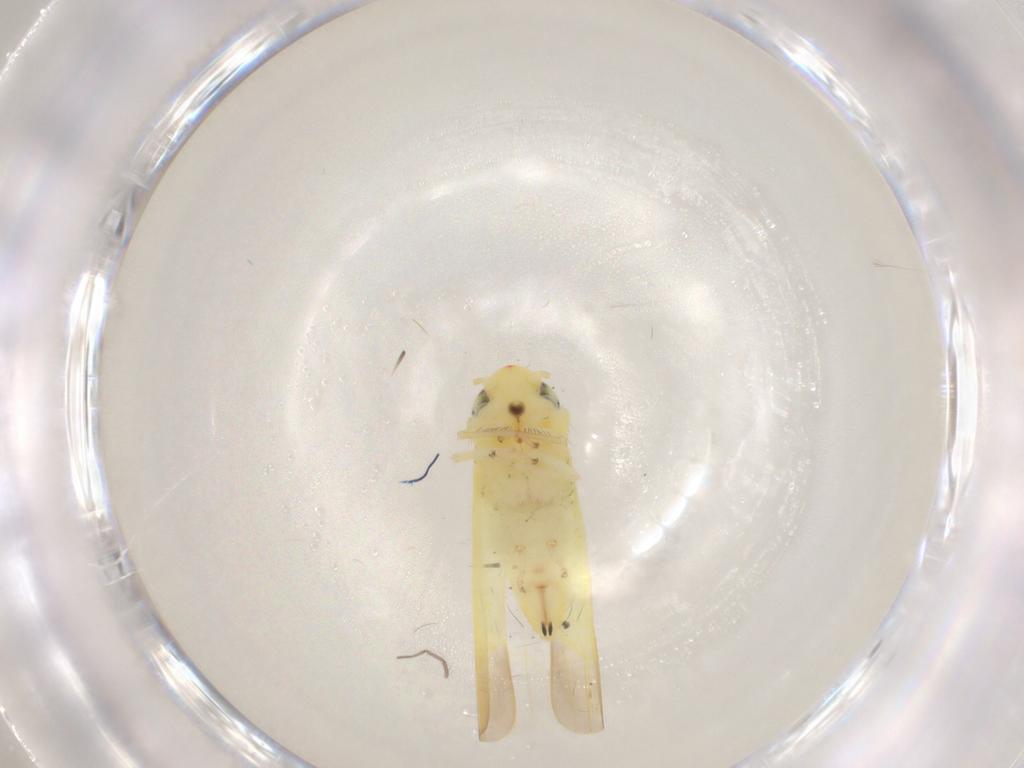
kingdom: Animalia
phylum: Arthropoda
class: Insecta
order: Hemiptera
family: Cicadellidae
